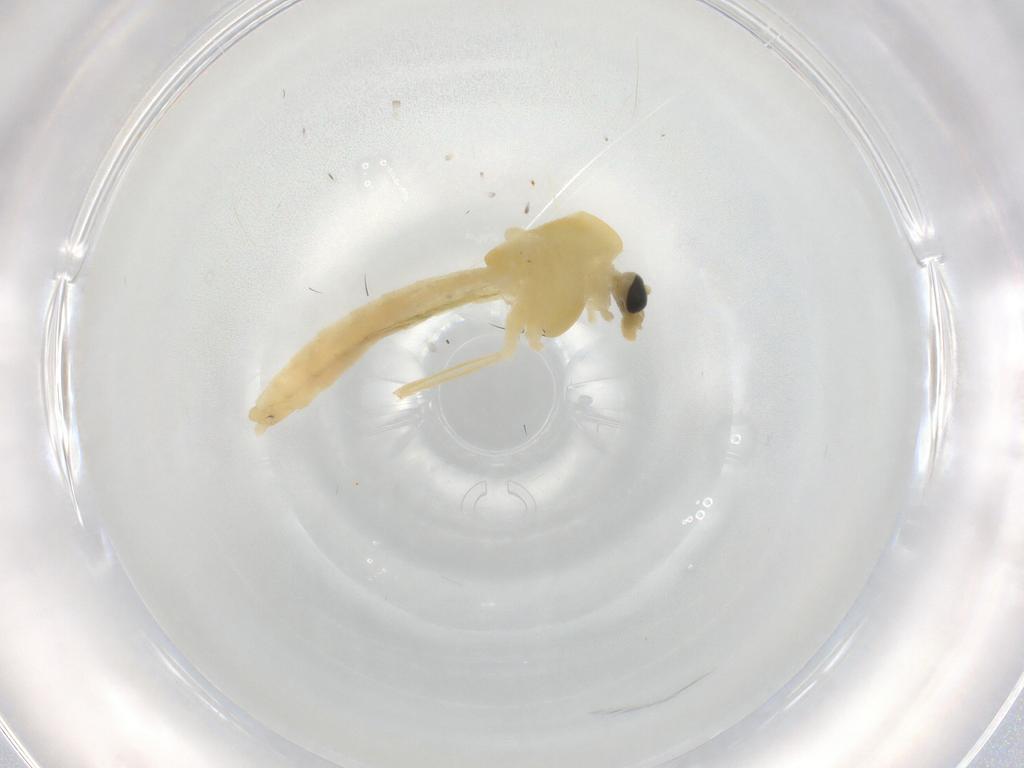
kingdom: Animalia
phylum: Arthropoda
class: Insecta
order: Diptera
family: Chironomidae
